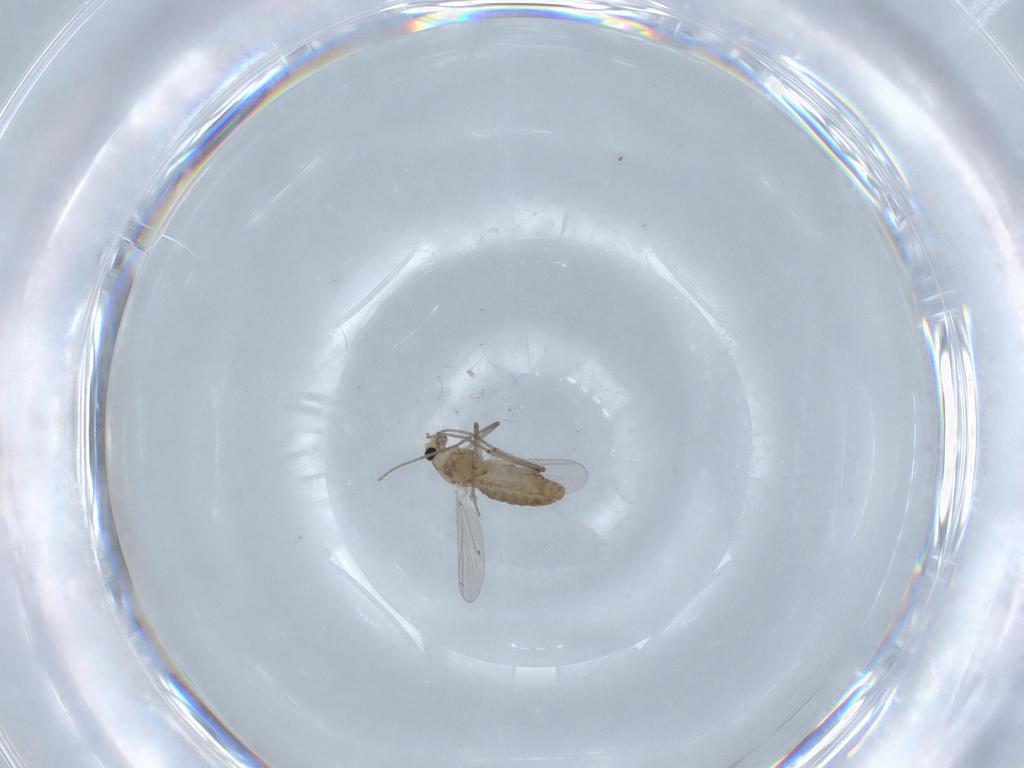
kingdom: Animalia
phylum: Arthropoda
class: Insecta
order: Diptera
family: Chironomidae
